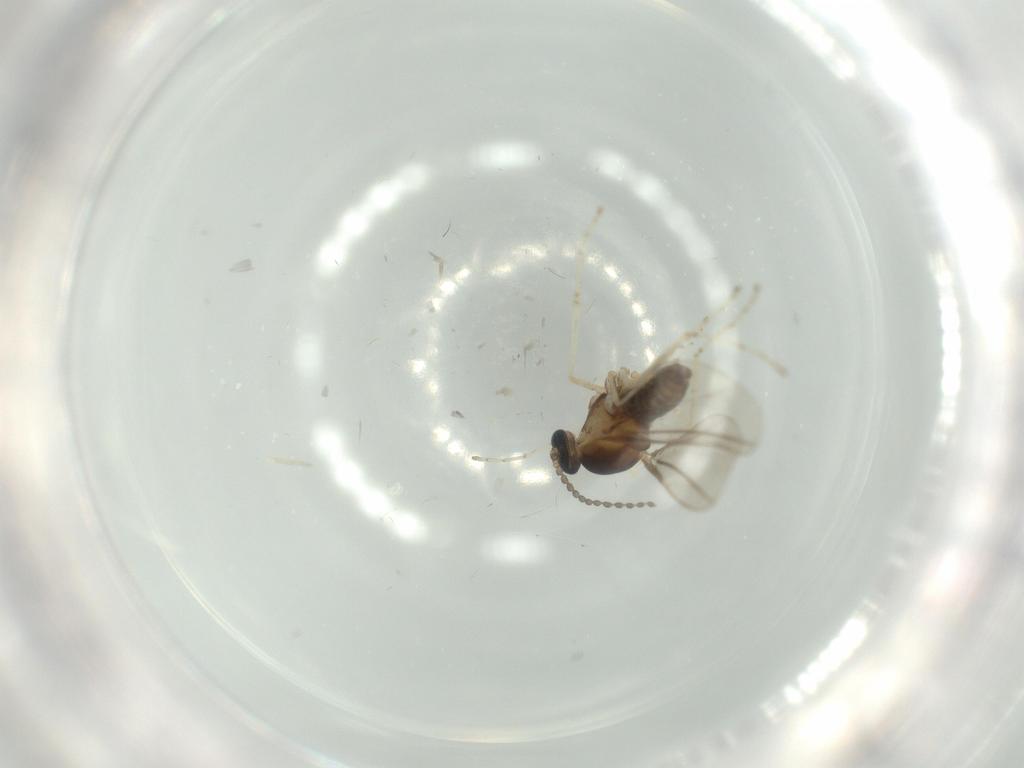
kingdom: Animalia
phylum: Arthropoda
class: Insecta
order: Diptera
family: Cecidomyiidae
